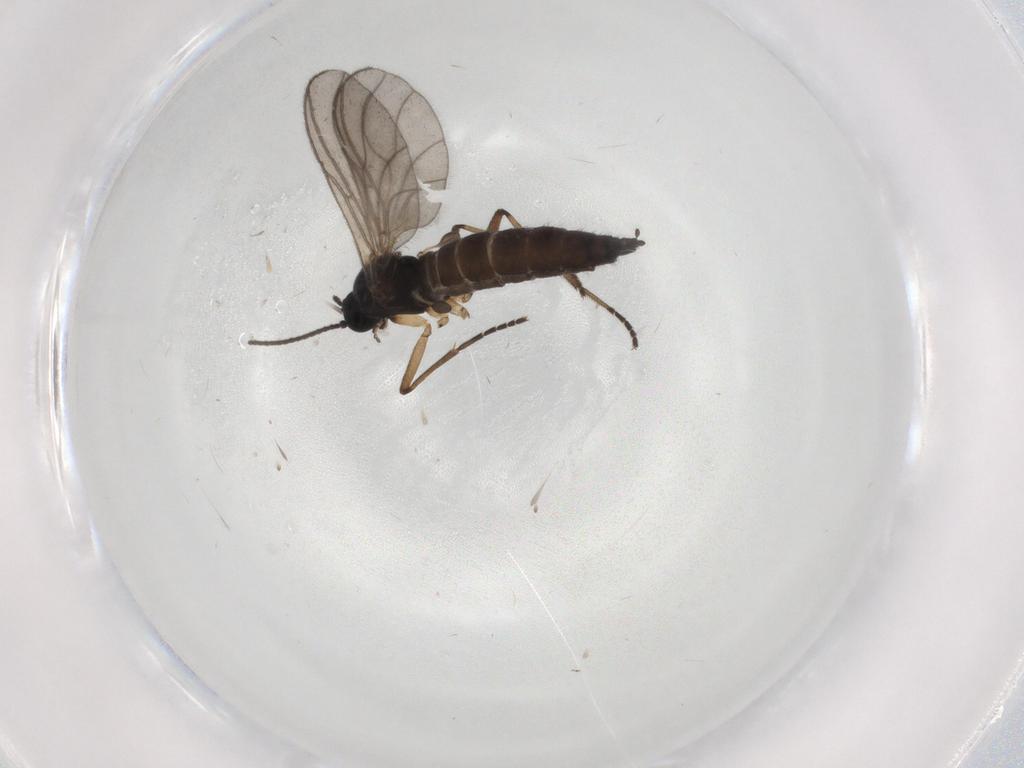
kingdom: Animalia
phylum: Arthropoda
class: Insecta
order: Diptera
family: Sciaridae
